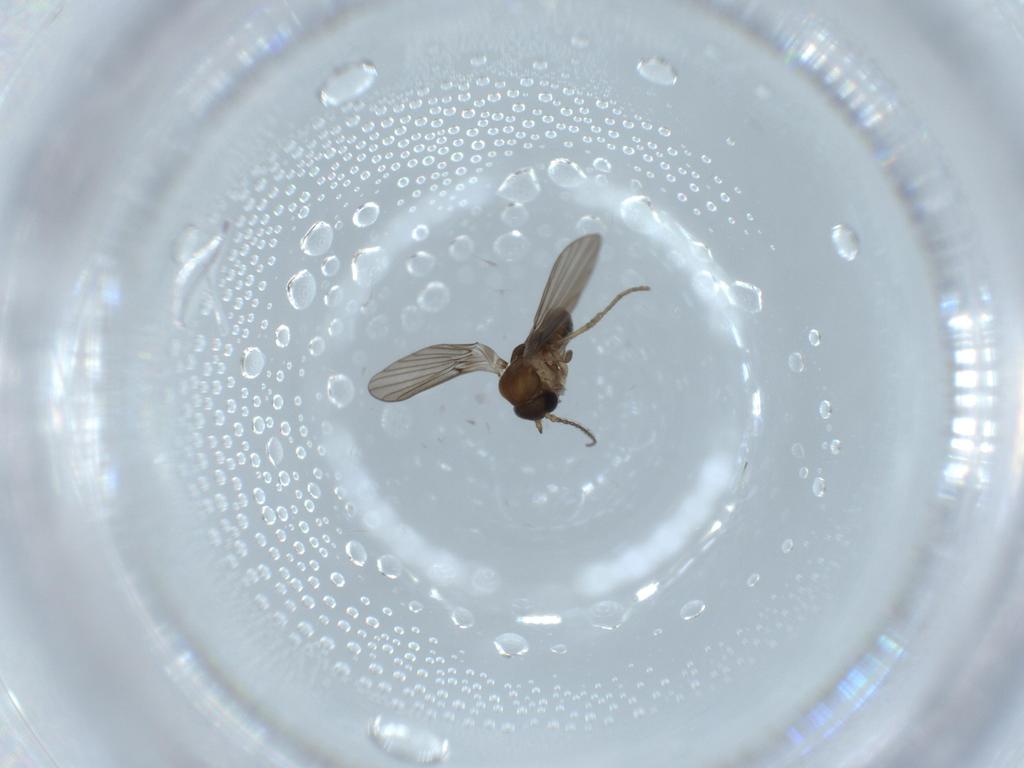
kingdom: Animalia
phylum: Arthropoda
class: Insecta
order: Diptera
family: Psychodidae
